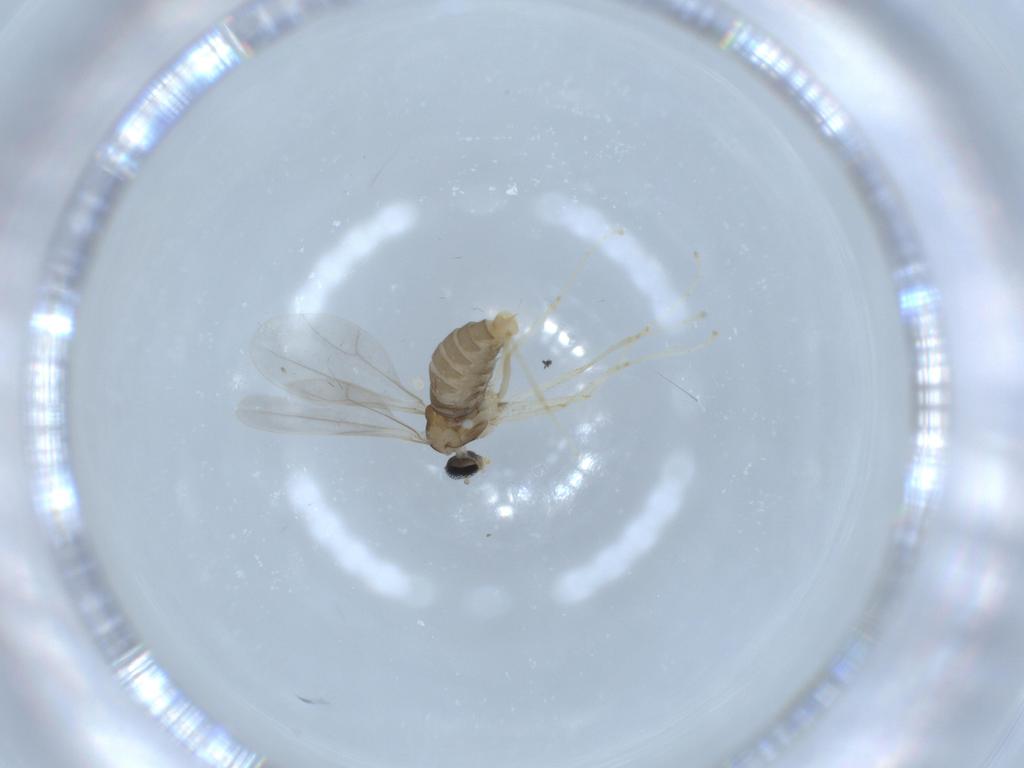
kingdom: Animalia
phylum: Arthropoda
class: Insecta
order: Diptera
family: Cecidomyiidae
